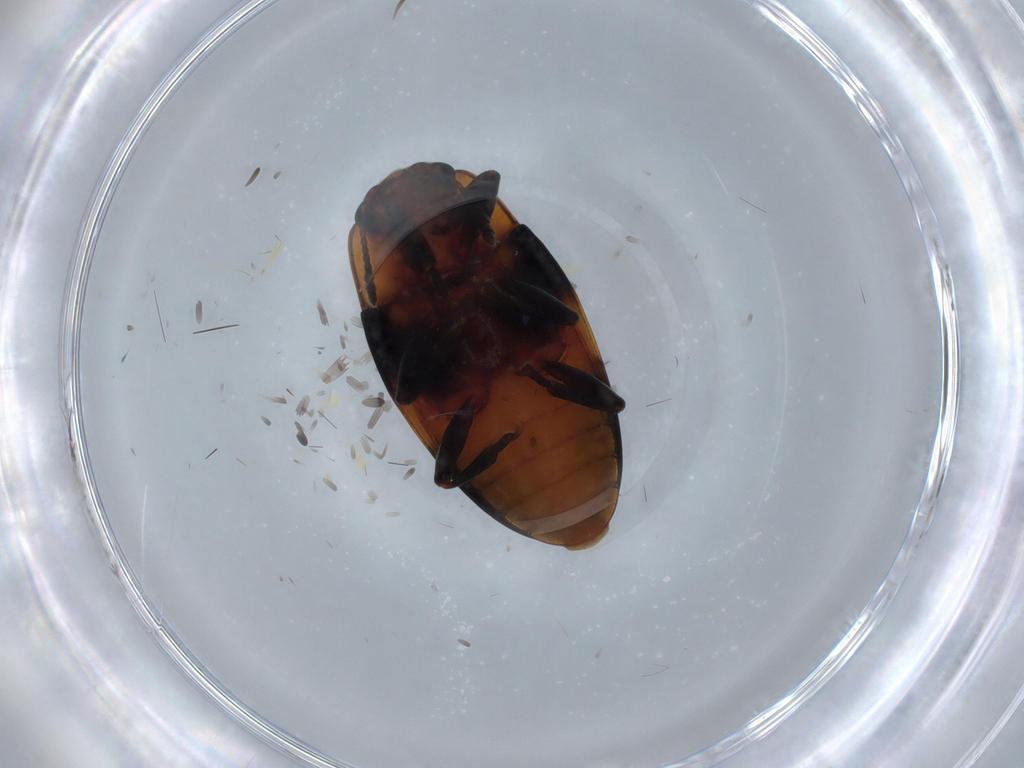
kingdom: Animalia
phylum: Arthropoda
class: Insecta
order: Coleoptera
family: Erotylidae
